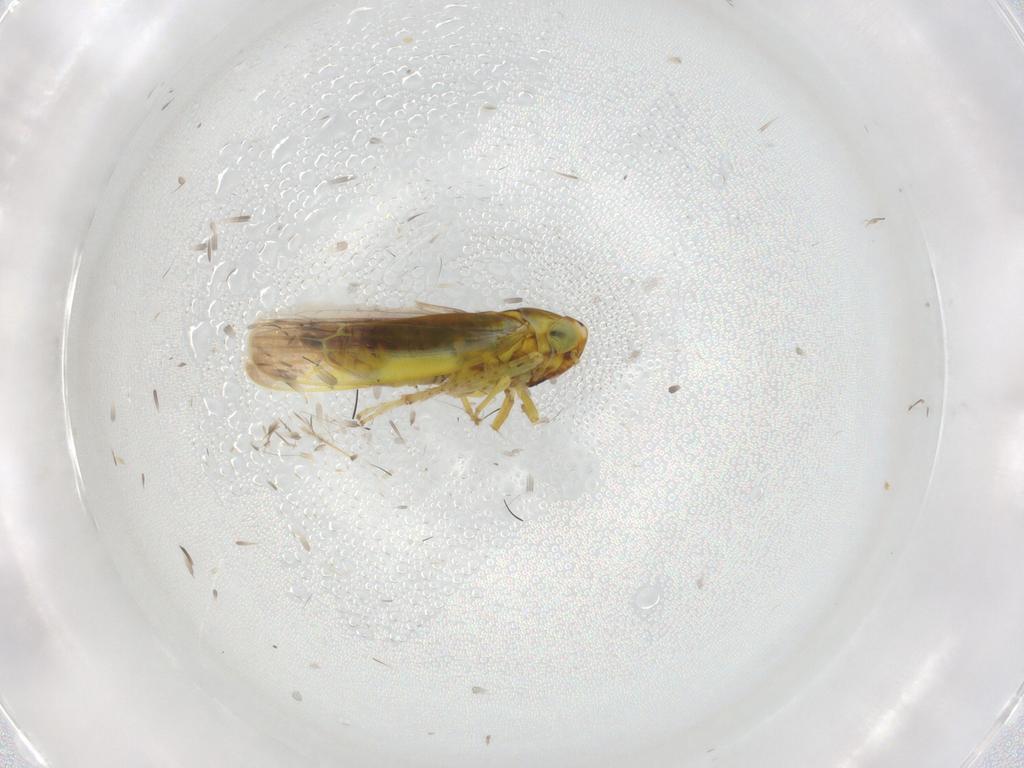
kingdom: Animalia
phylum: Arthropoda
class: Insecta
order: Hemiptera
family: Cicadellidae
